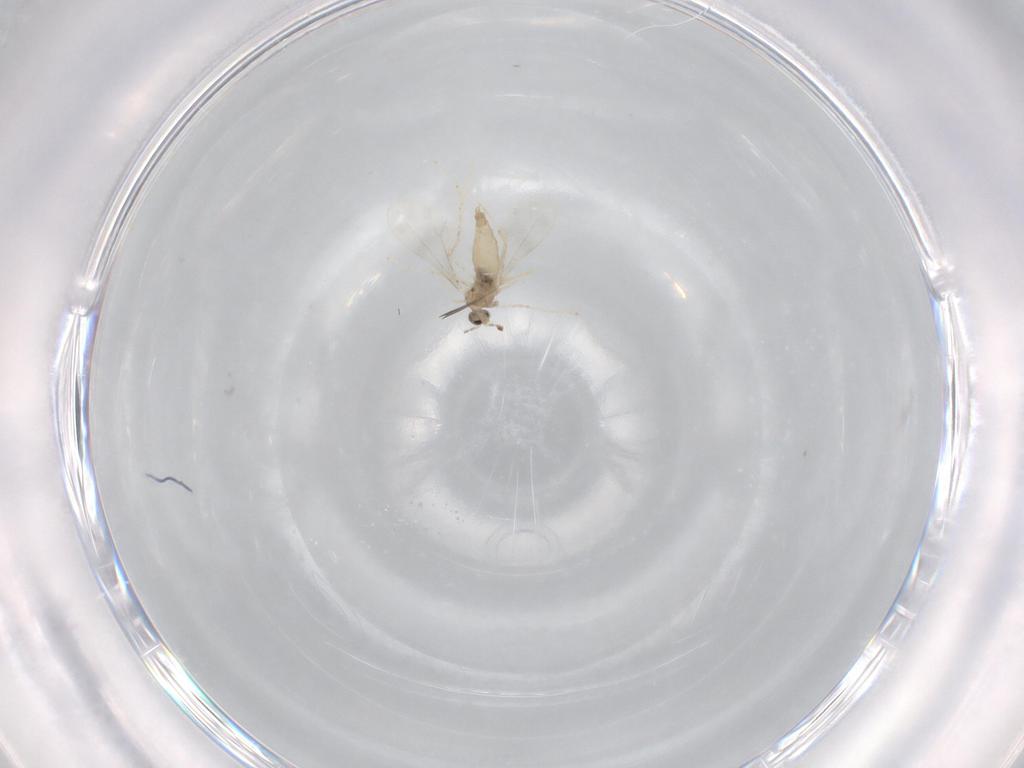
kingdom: Animalia
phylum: Arthropoda
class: Insecta
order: Diptera
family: Cecidomyiidae
